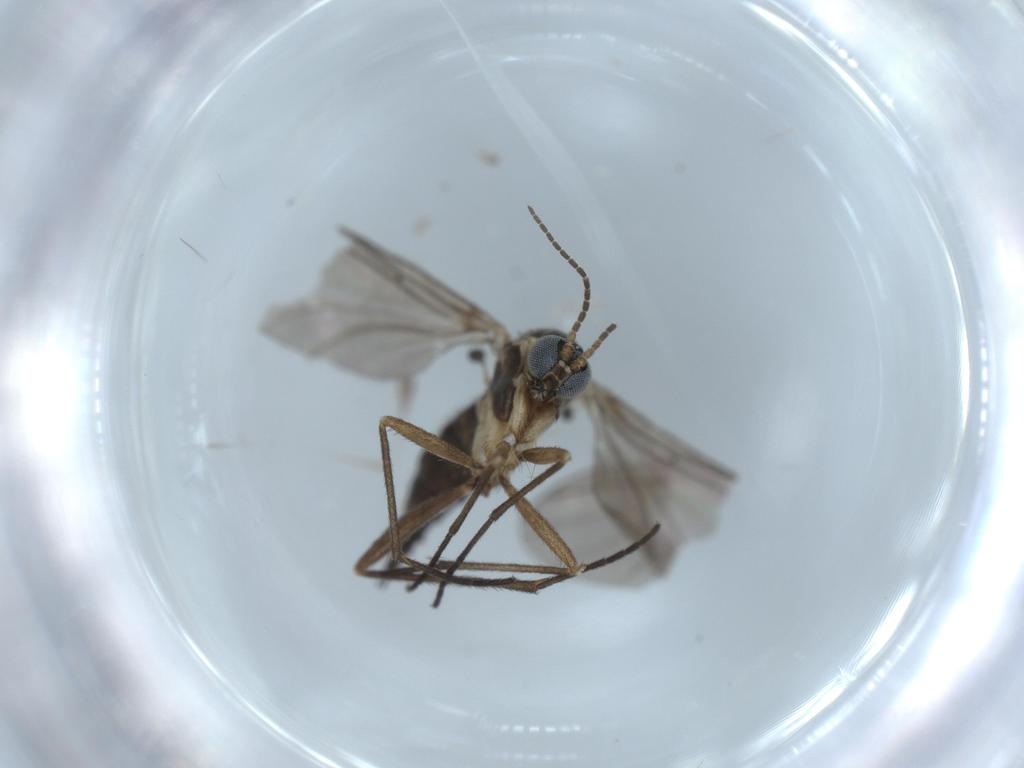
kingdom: Animalia
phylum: Arthropoda
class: Insecta
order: Diptera
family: Sciaridae
